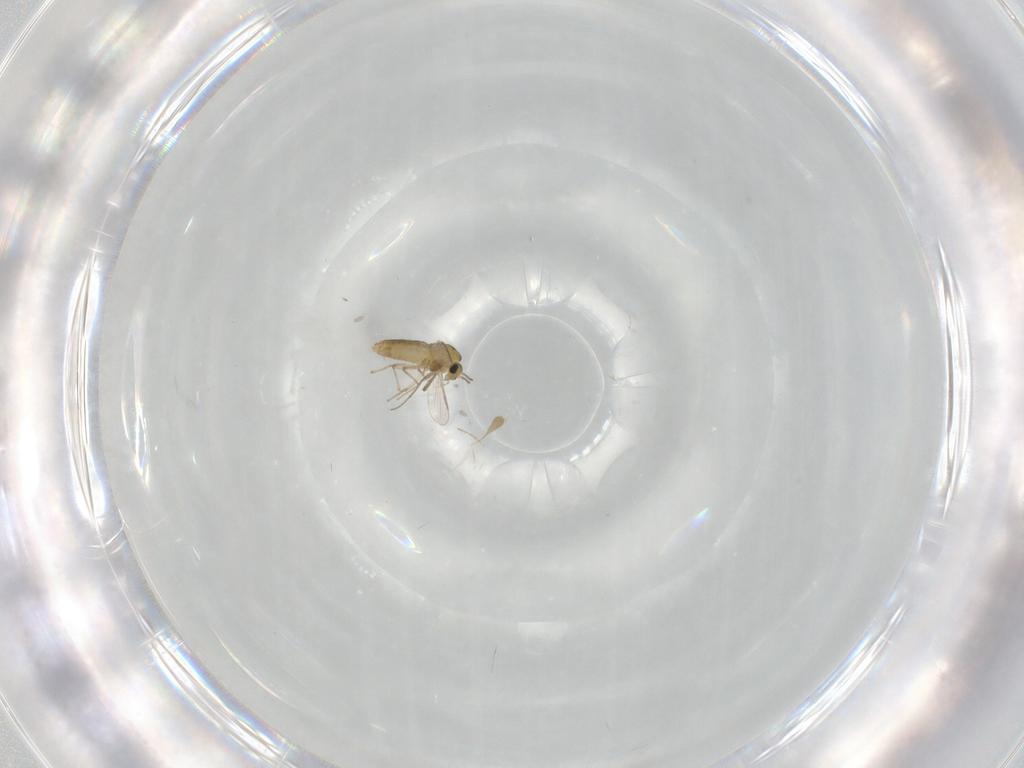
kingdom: Animalia
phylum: Arthropoda
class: Insecta
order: Diptera
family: Chironomidae
